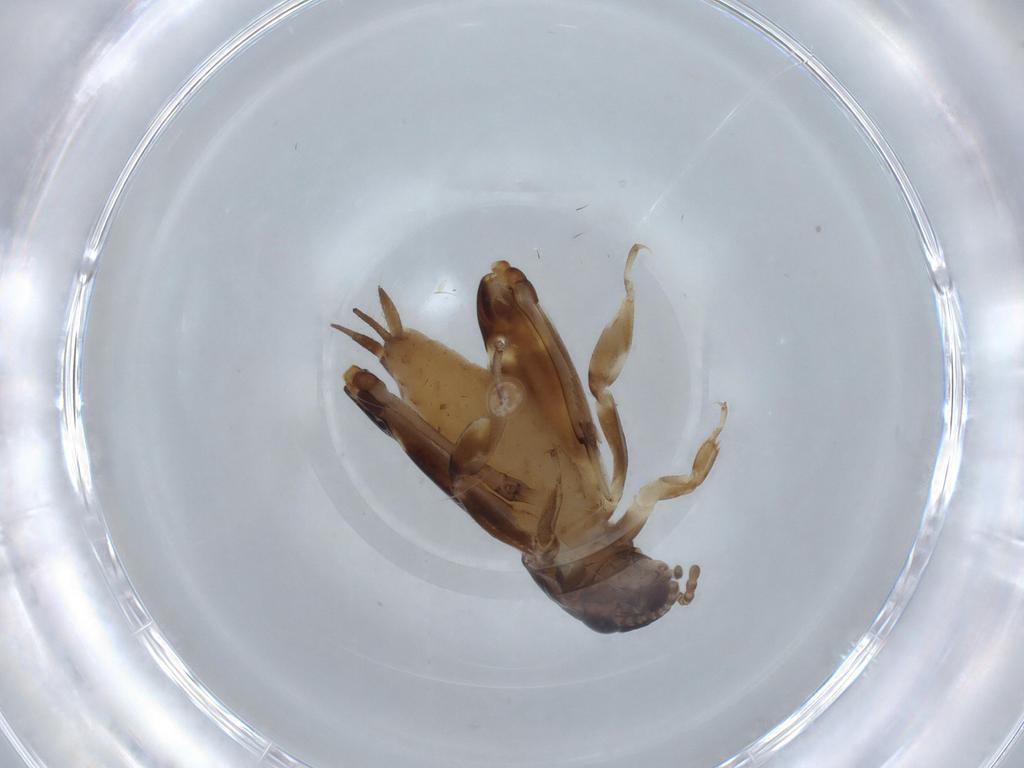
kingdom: Animalia
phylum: Arthropoda
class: Insecta
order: Orthoptera
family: Tridactylidae
